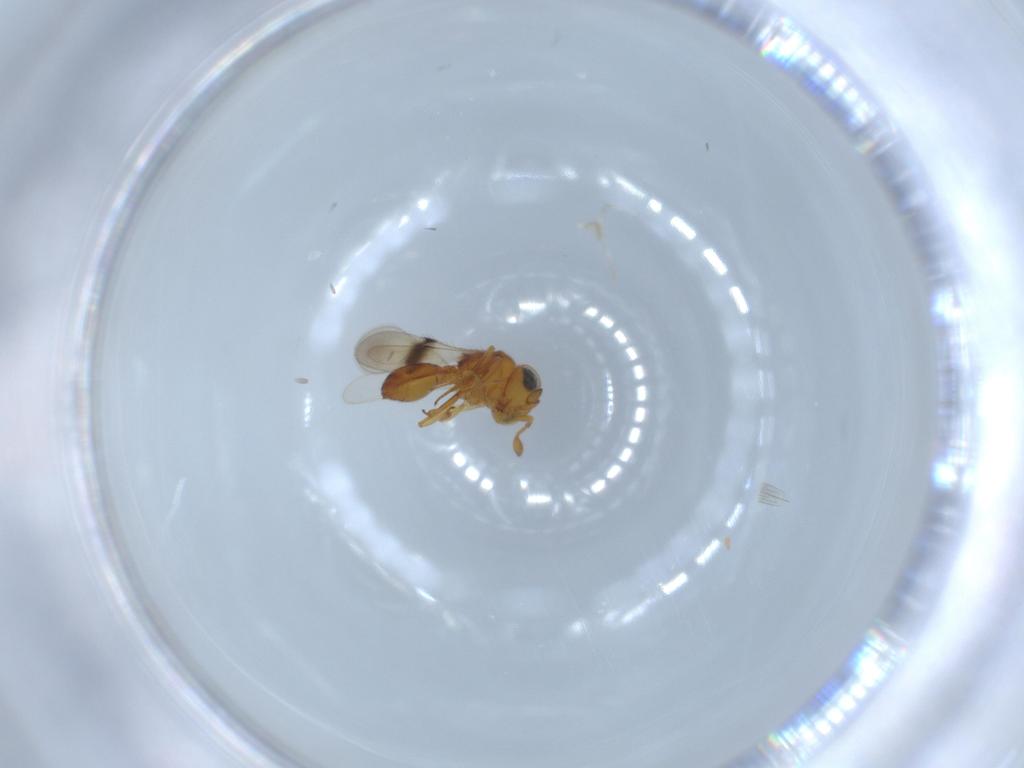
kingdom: Animalia
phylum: Arthropoda
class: Insecta
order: Hymenoptera
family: Scelionidae
